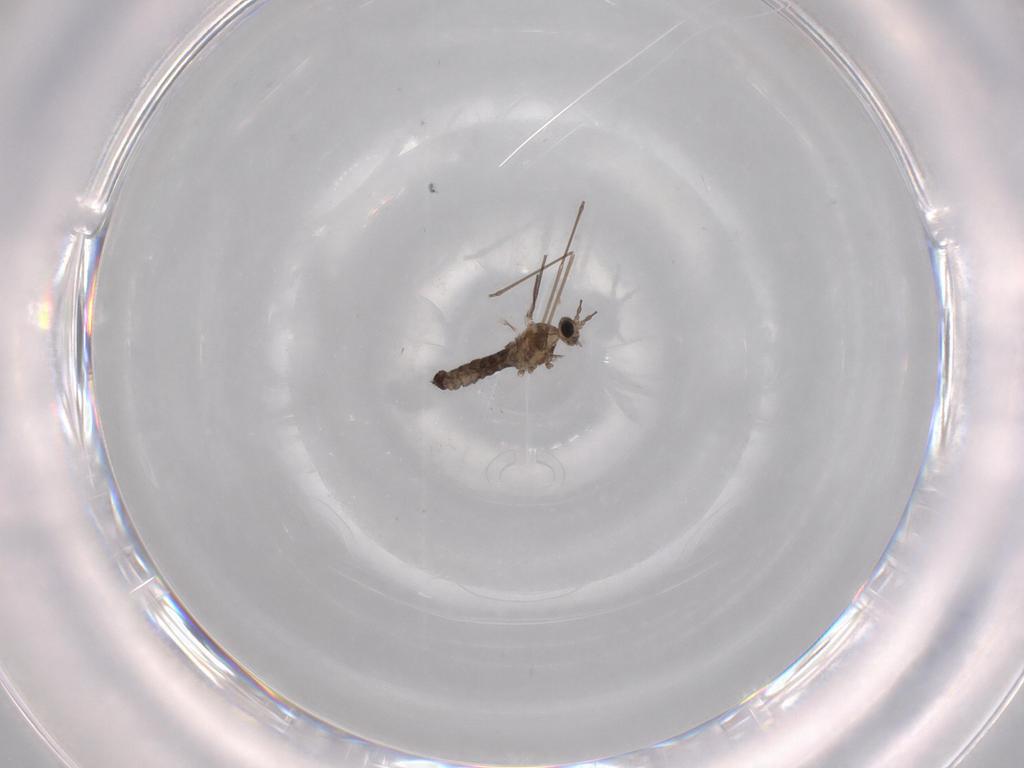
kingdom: Animalia
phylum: Arthropoda
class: Insecta
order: Diptera
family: Cecidomyiidae
